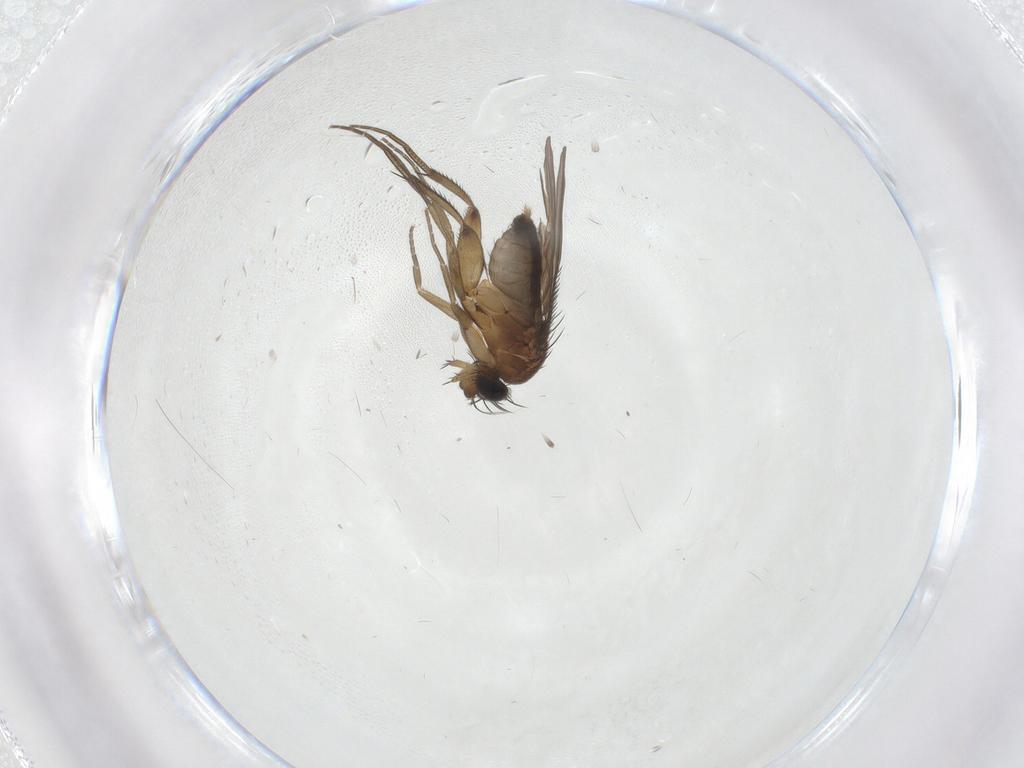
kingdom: Animalia
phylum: Arthropoda
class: Insecta
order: Diptera
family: Phoridae
